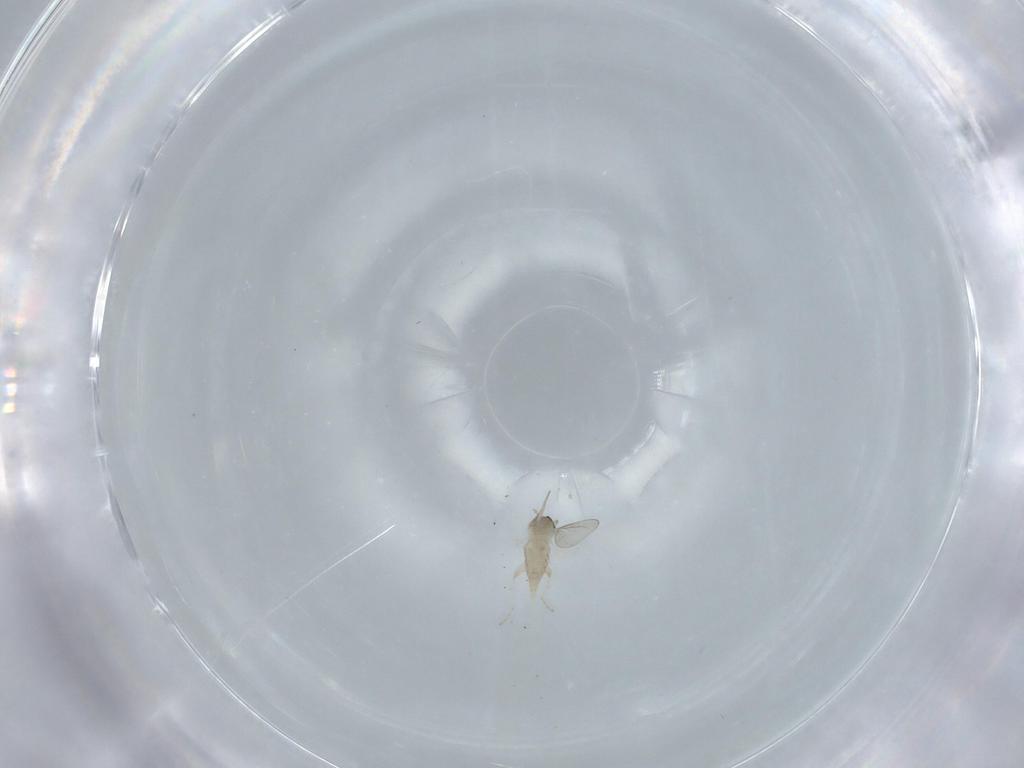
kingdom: Animalia
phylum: Arthropoda
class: Insecta
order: Diptera
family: Cecidomyiidae
